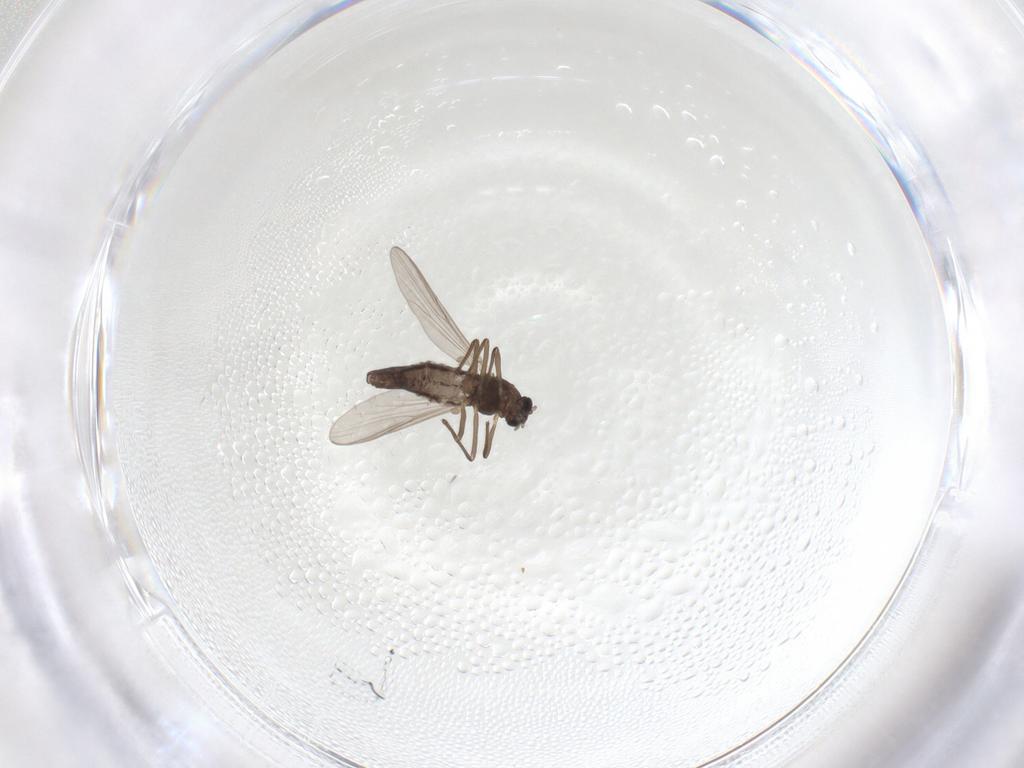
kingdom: Animalia
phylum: Arthropoda
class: Insecta
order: Diptera
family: Chironomidae
